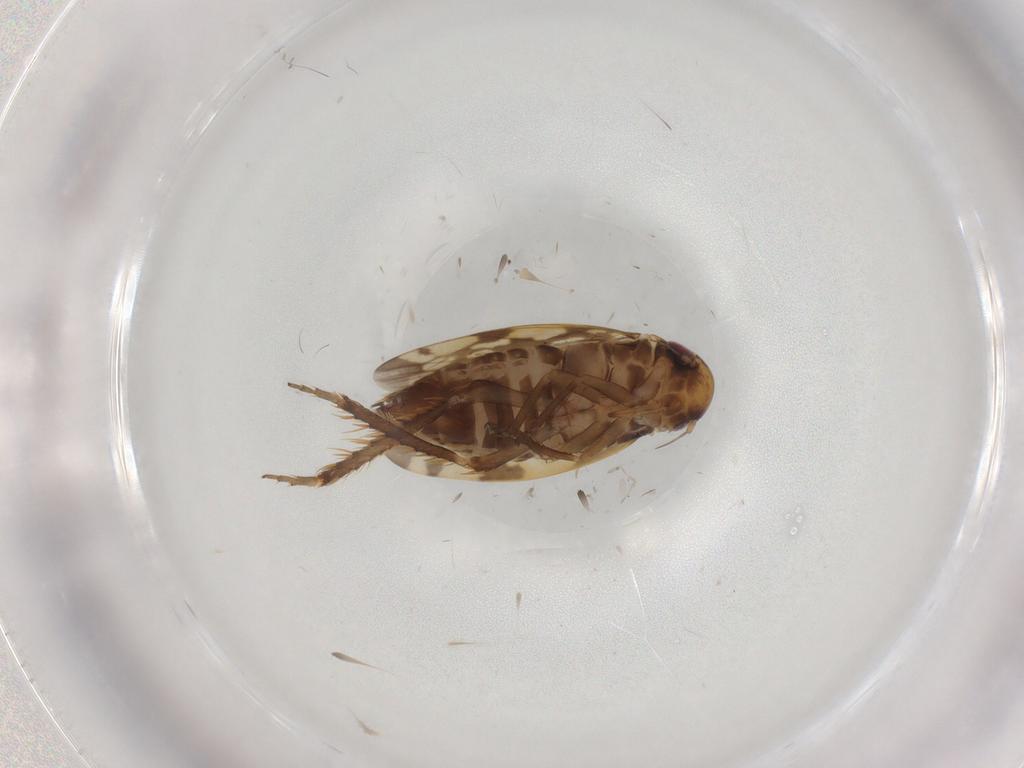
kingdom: Animalia
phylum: Arthropoda
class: Insecta
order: Hemiptera
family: Cicadellidae
